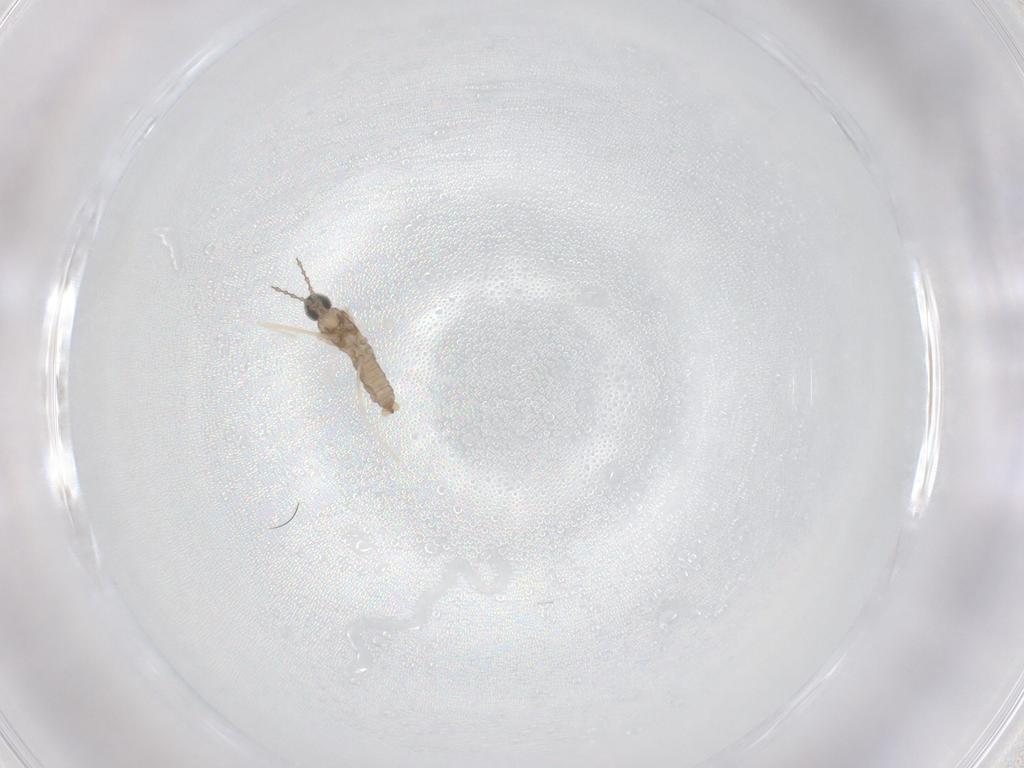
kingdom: Animalia
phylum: Arthropoda
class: Insecta
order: Diptera
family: Cecidomyiidae
